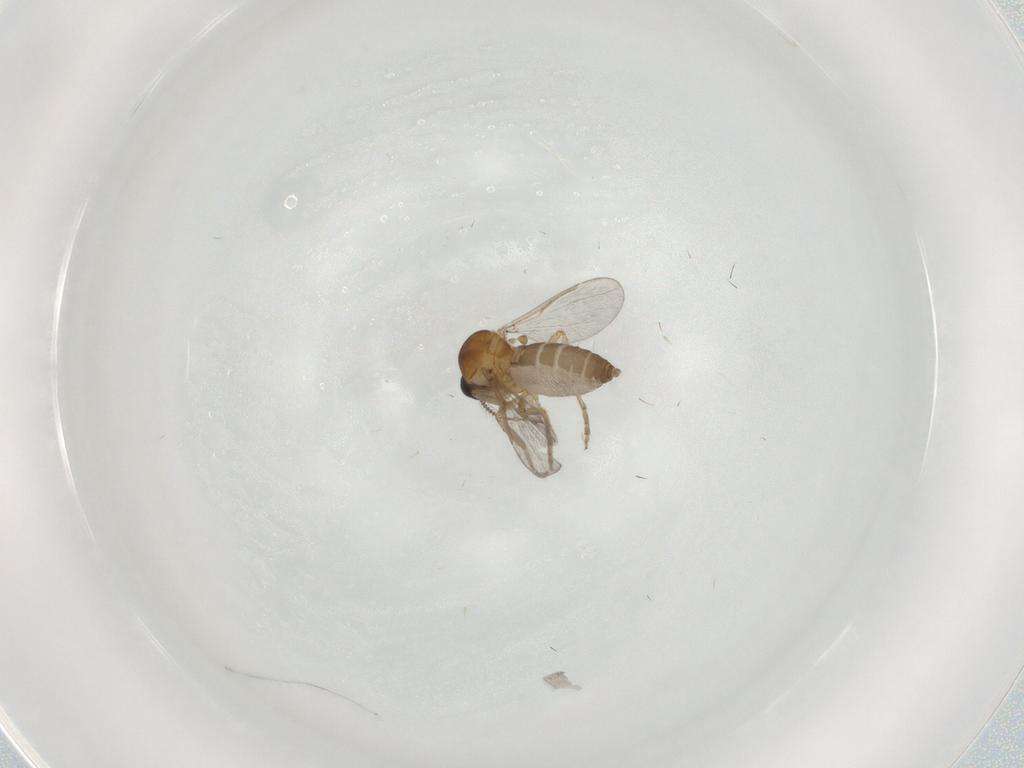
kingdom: Animalia
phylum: Arthropoda
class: Insecta
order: Diptera
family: Ceratopogonidae
